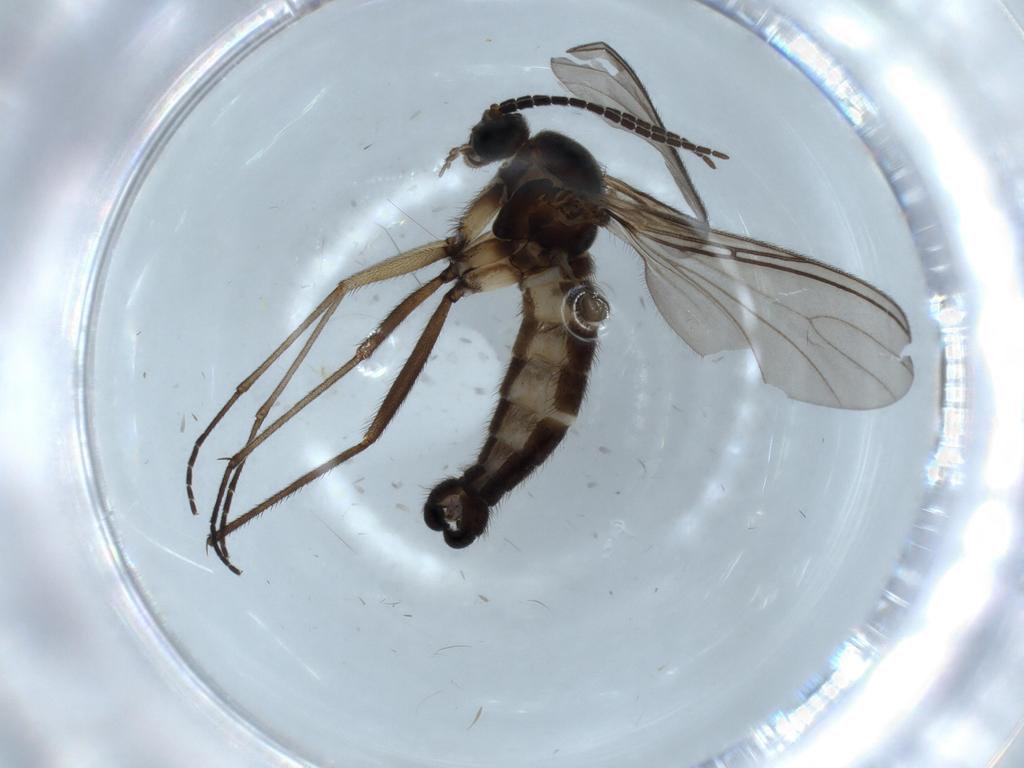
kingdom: Animalia
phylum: Arthropoda
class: Insecta
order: Diptera
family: Sciaridae
